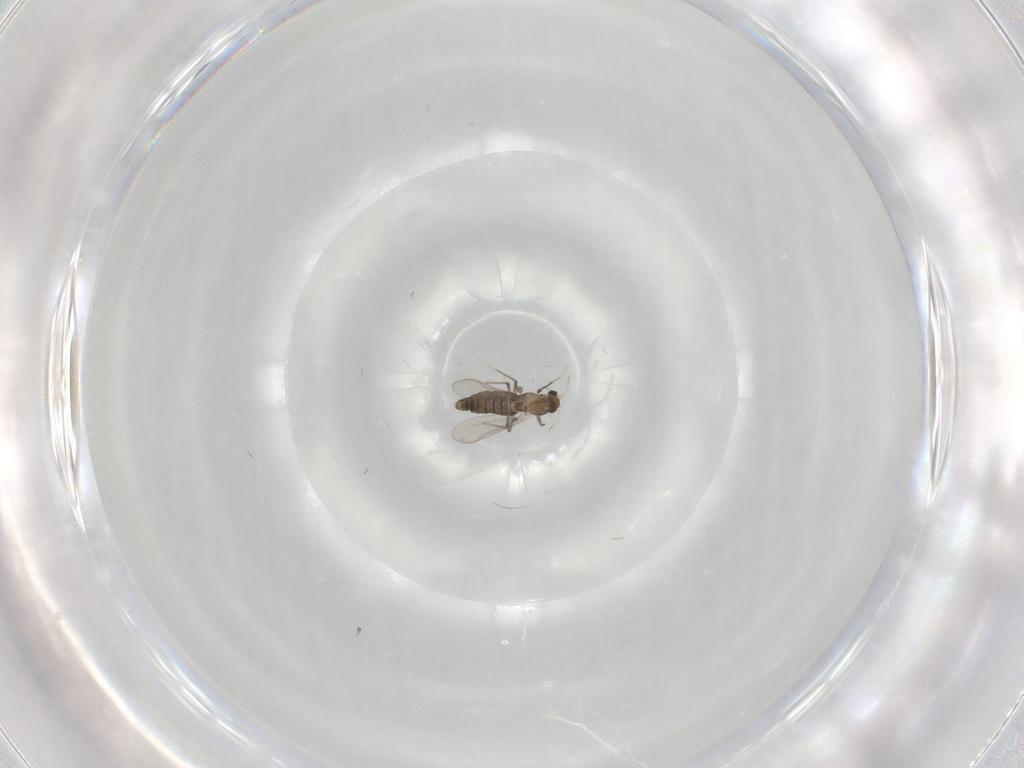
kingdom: Animalia
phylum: Arthropoda
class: Insecta
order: Diptera
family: Chironomidae
